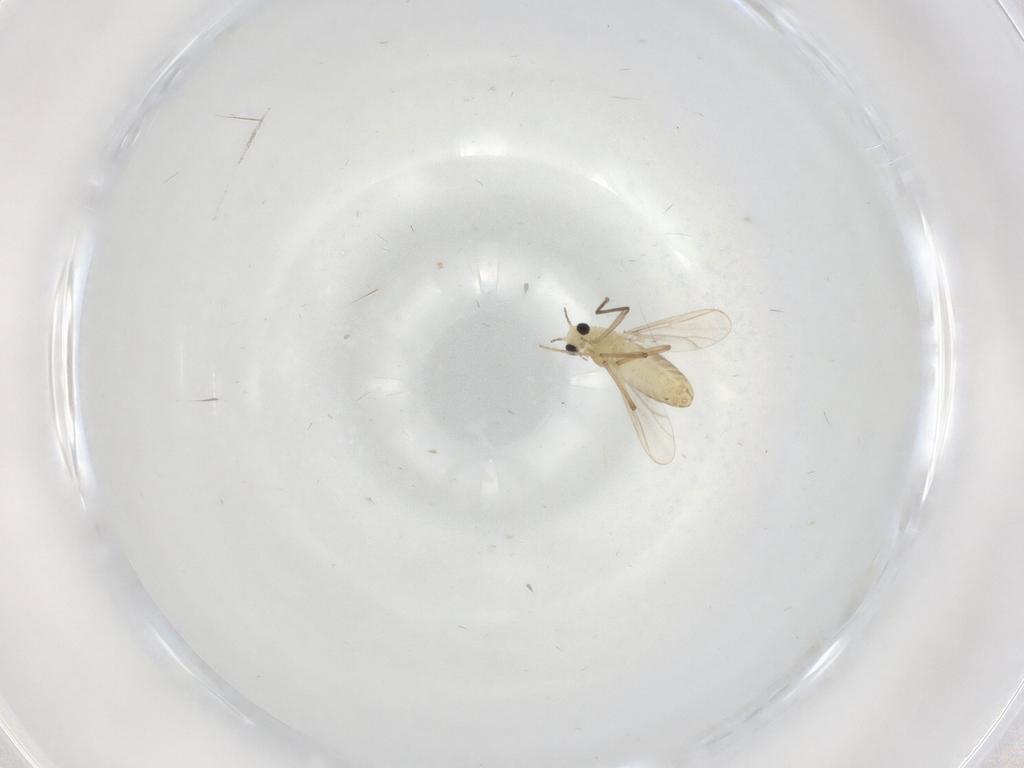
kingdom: Animalia
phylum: Arthropoda
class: Insecta
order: Diptera
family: Chironomidae
